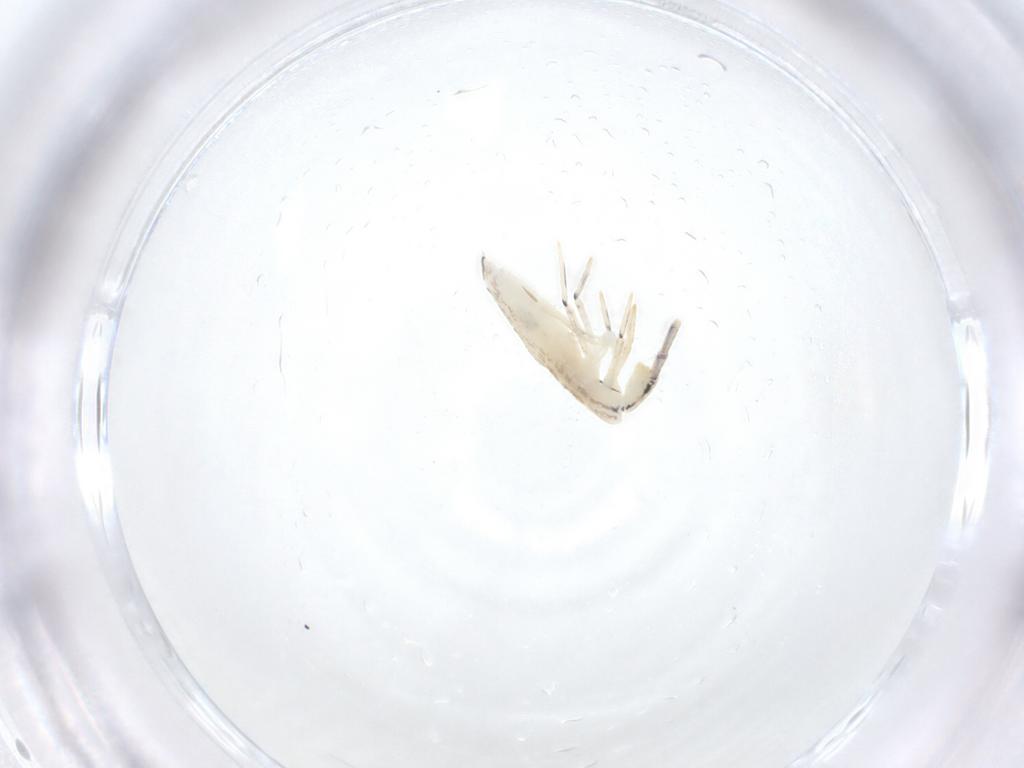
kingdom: Animalia
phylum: Arthropoda
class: Collembola
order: Entomobryomorpha
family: Entomobryidae
